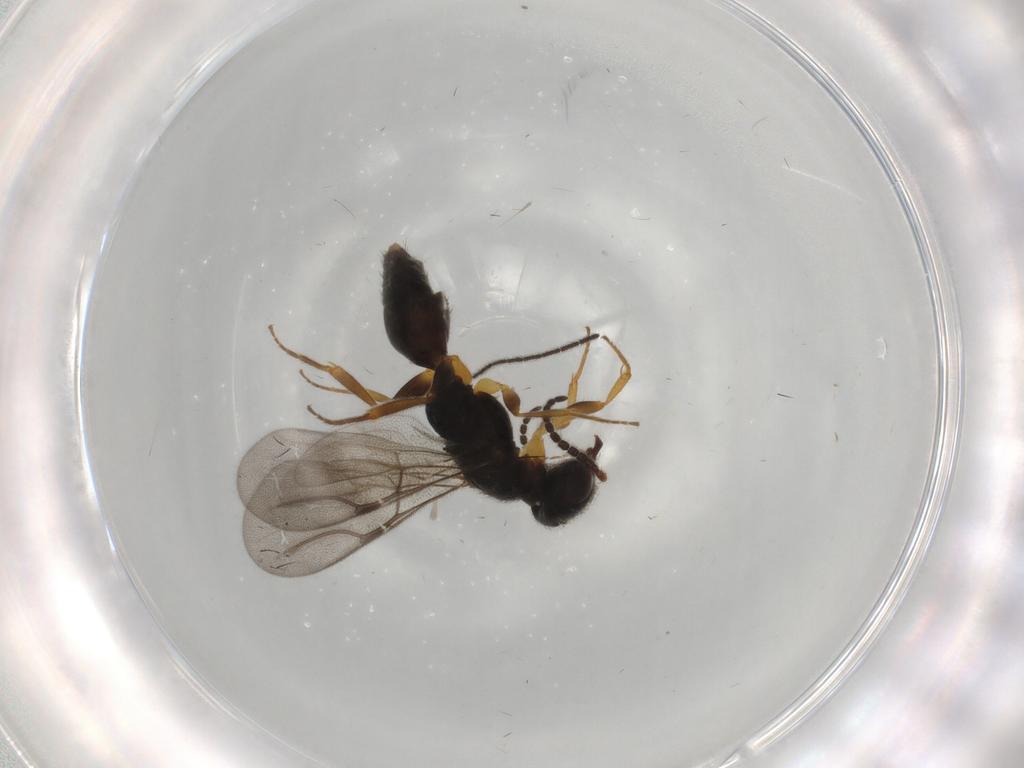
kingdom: Animalia
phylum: Arthropoda
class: Insecta
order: Hymenoptera
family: Bethylidae
